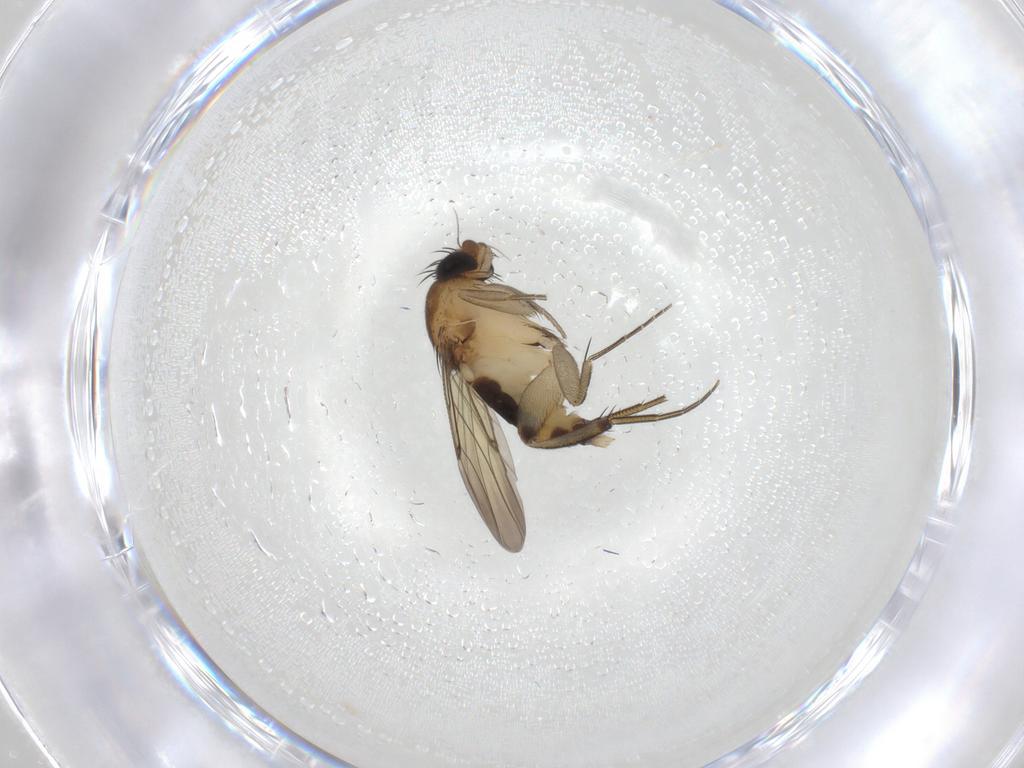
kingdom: Animalia
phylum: Arthropoda
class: Insecta
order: Diptera
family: Phoridae
